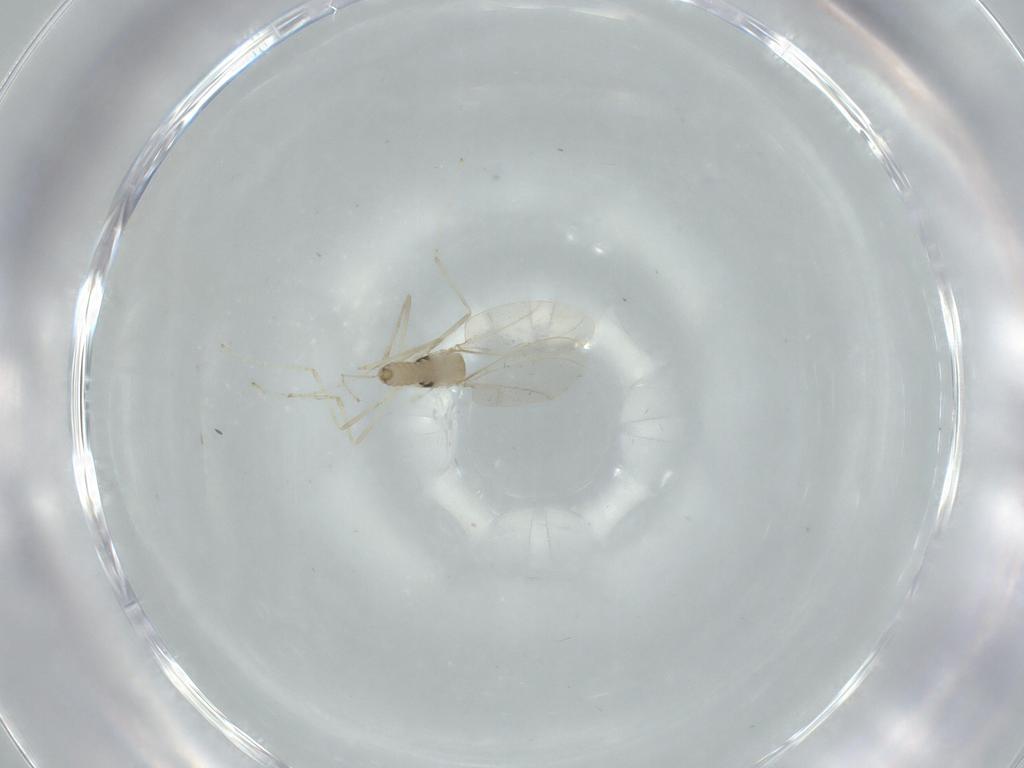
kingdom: Animalia
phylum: Arthropoda
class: Insecta
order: Diptera
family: Cecidomyiidae
